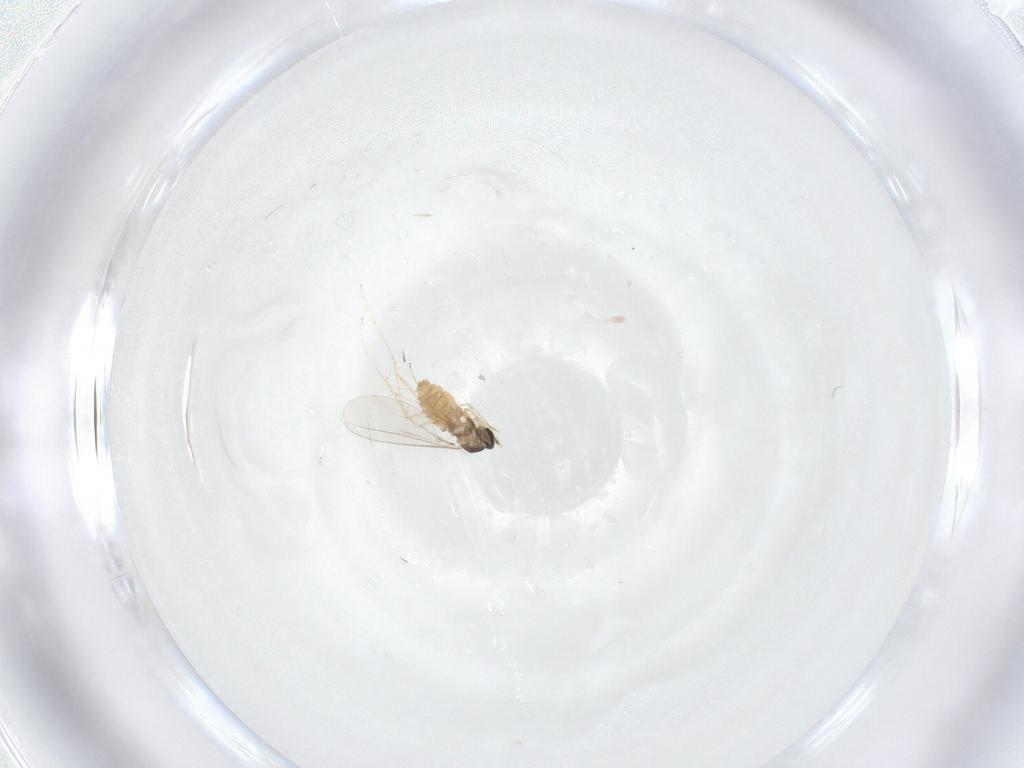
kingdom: Animalia
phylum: Arthropoda
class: Insecta
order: Diptera
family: Cecidomyiidae
